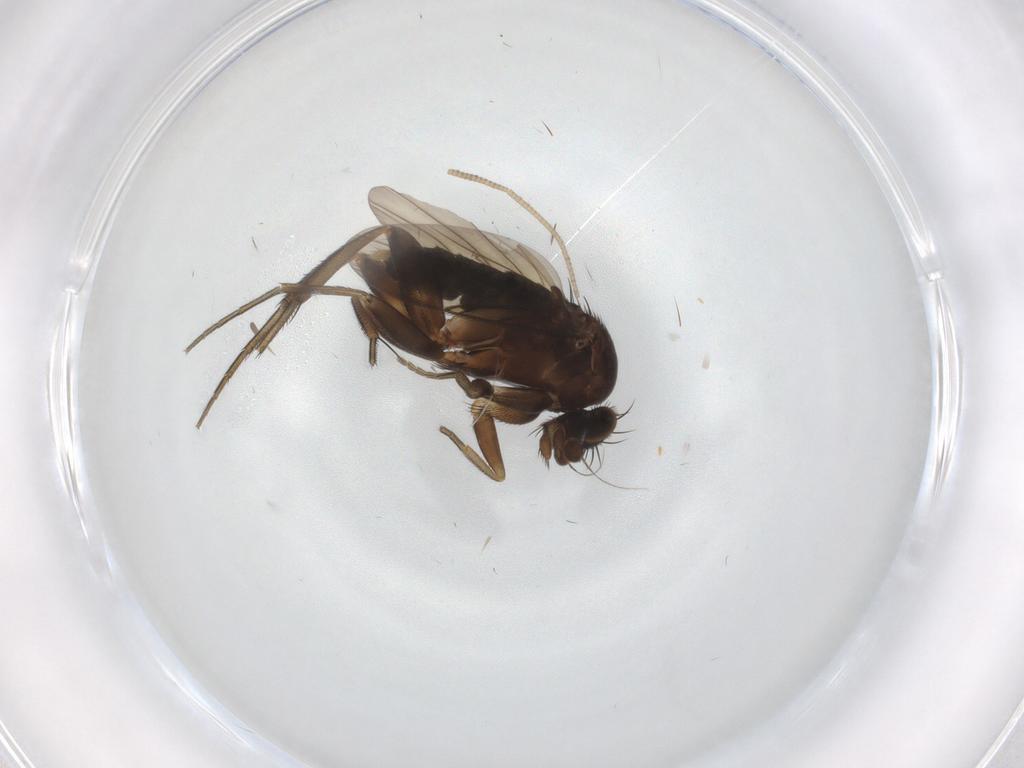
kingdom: Animalia
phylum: Arthropoda
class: Insecta
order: Diptera
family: Phoridae
